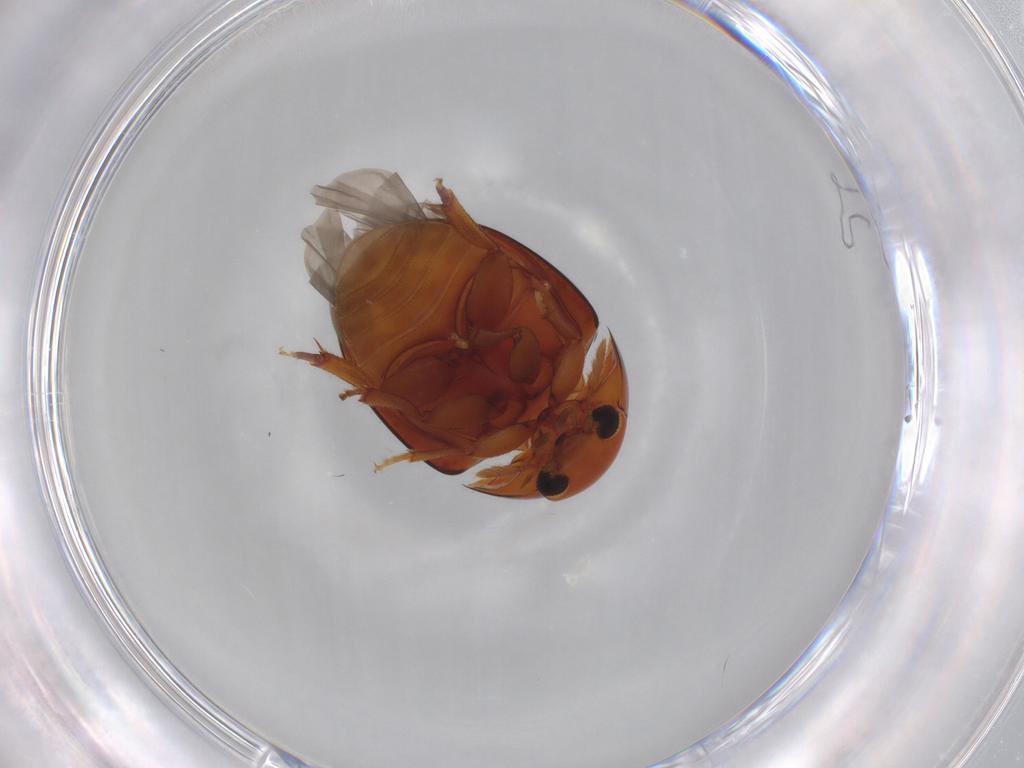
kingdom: Animalia
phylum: Arthropoda
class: Insecta
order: Coleoptera
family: Phalacridae
